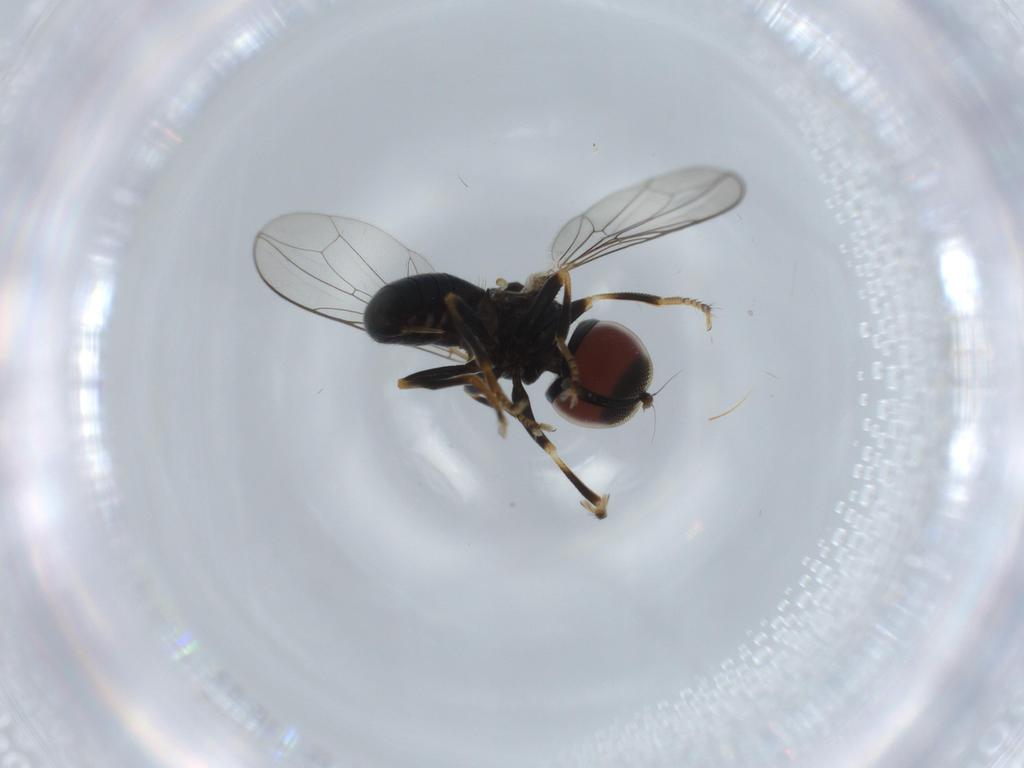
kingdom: Animalia
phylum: Arthropoda
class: Insecta
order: Diptera
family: Pipunculidae
